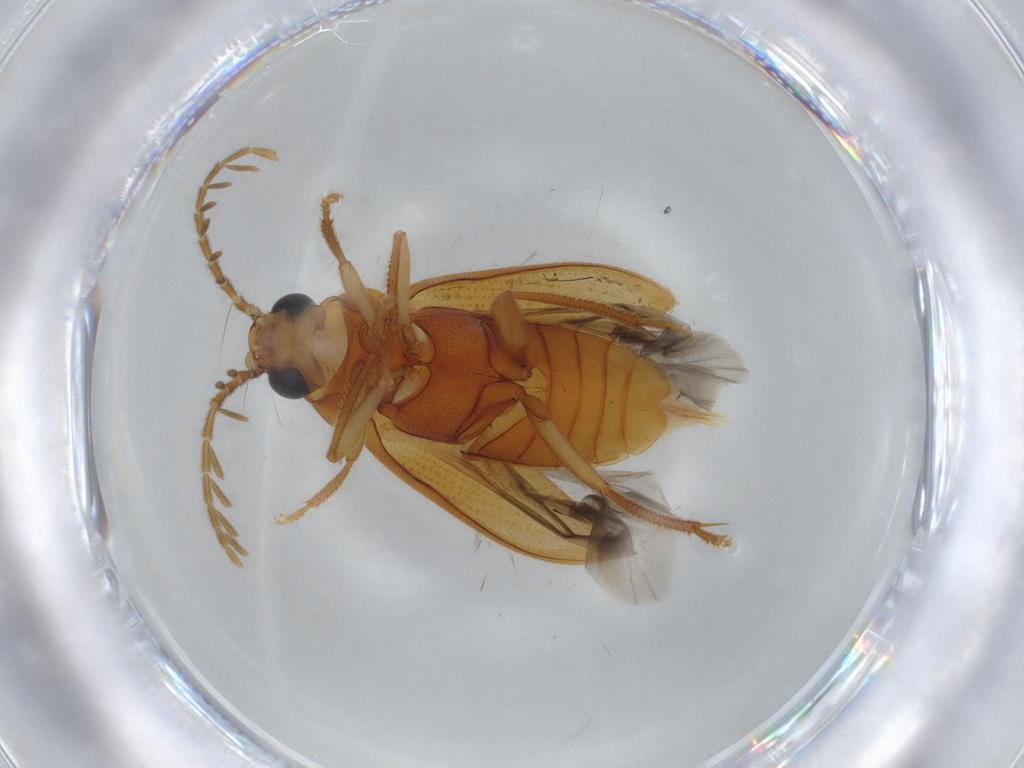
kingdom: Animalia
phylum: Arthropoda
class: Insecta
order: Coleoptera
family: Ptilodactylidae
